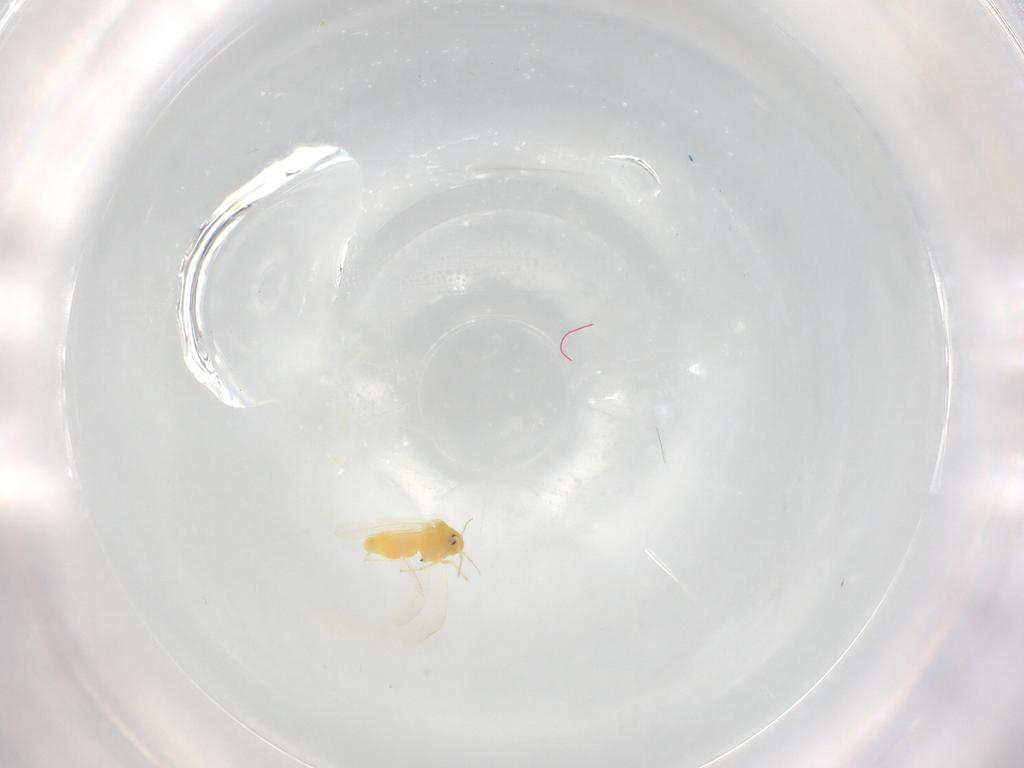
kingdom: Animalia
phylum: Arthropoda
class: Insecta
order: Hemiptera
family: Aleyrodidae
